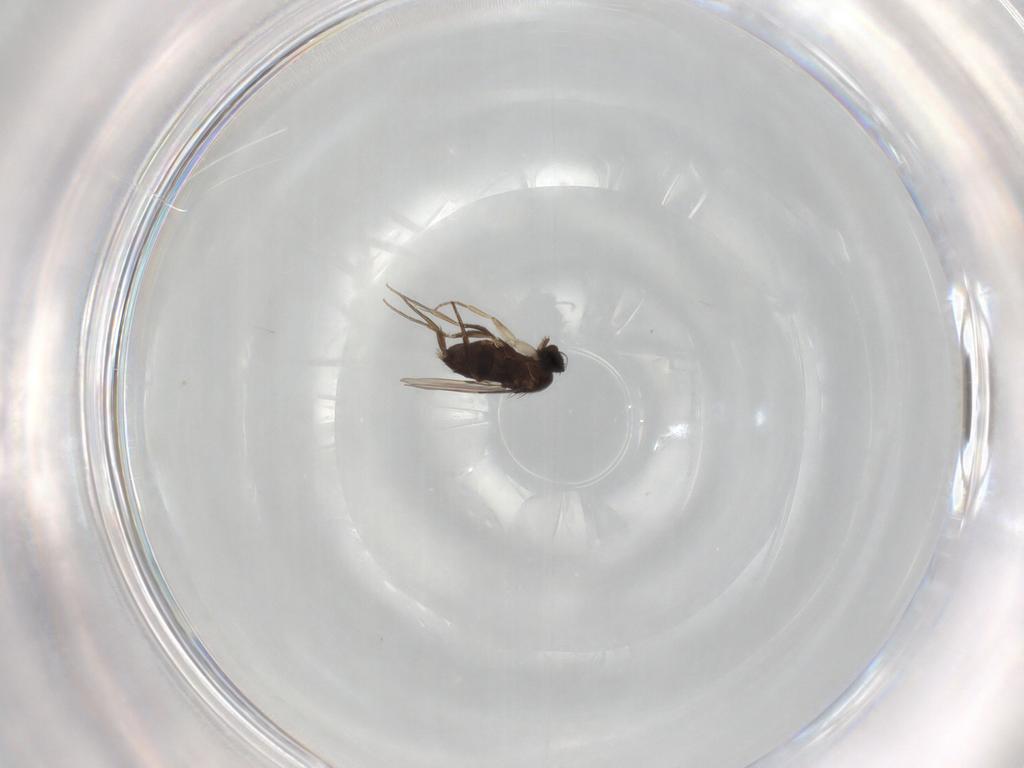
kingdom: Animalia
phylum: Arthropoda
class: Insecta
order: Diptera
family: Phoridae
